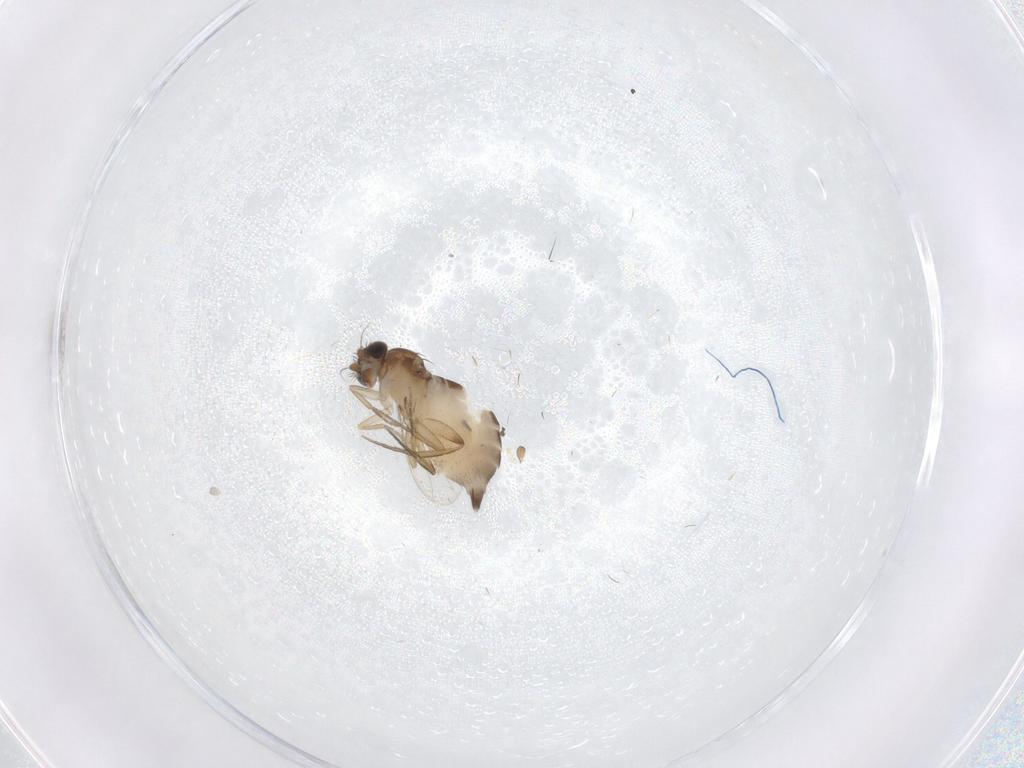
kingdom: Animalia
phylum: Arthropoda
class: Insecta
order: Diptera
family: Phoridae
